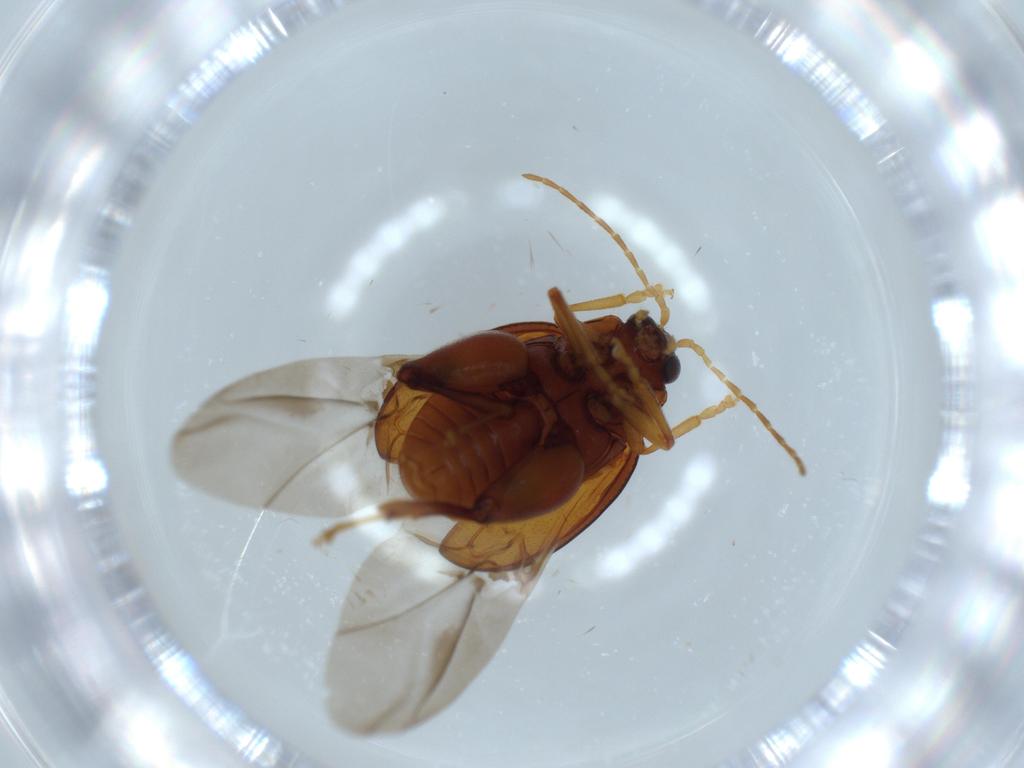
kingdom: Animalia
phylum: Arthropoda
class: Insecta
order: Coleoptera
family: Chrysomelidae
